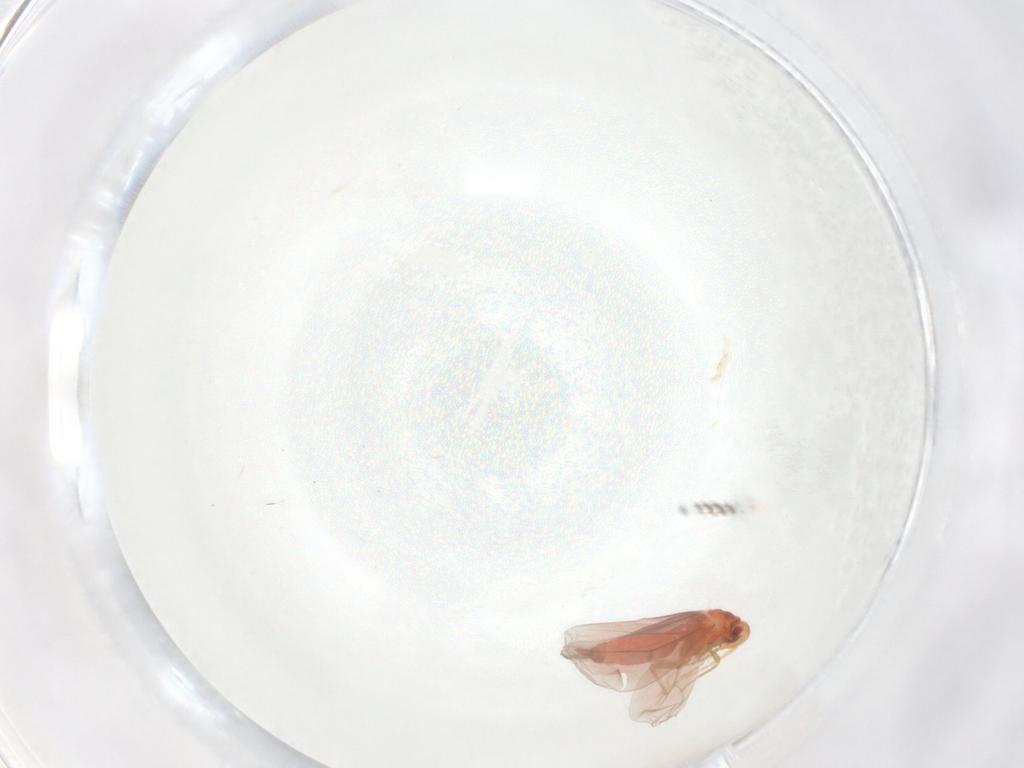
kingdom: Animalia
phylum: Arthropoda
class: Insecta
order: Hemiptera
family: Aleyrodidae
